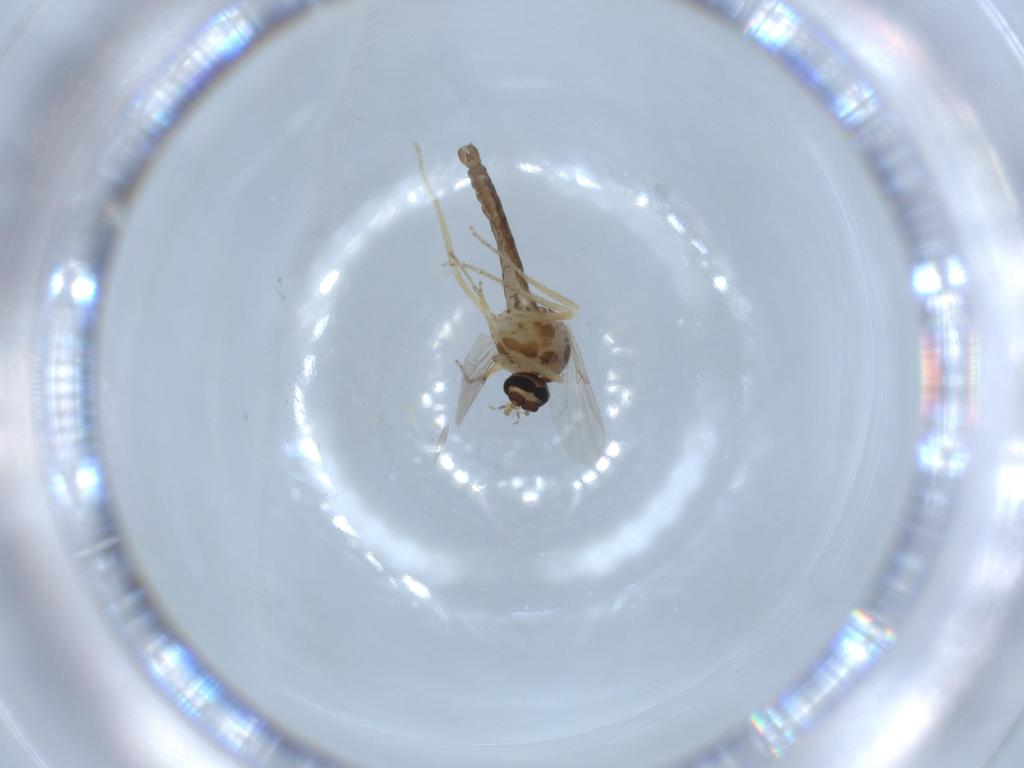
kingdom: Animalia
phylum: Arthropoda
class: Insecta
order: Diptera
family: Ceratopogonidae
